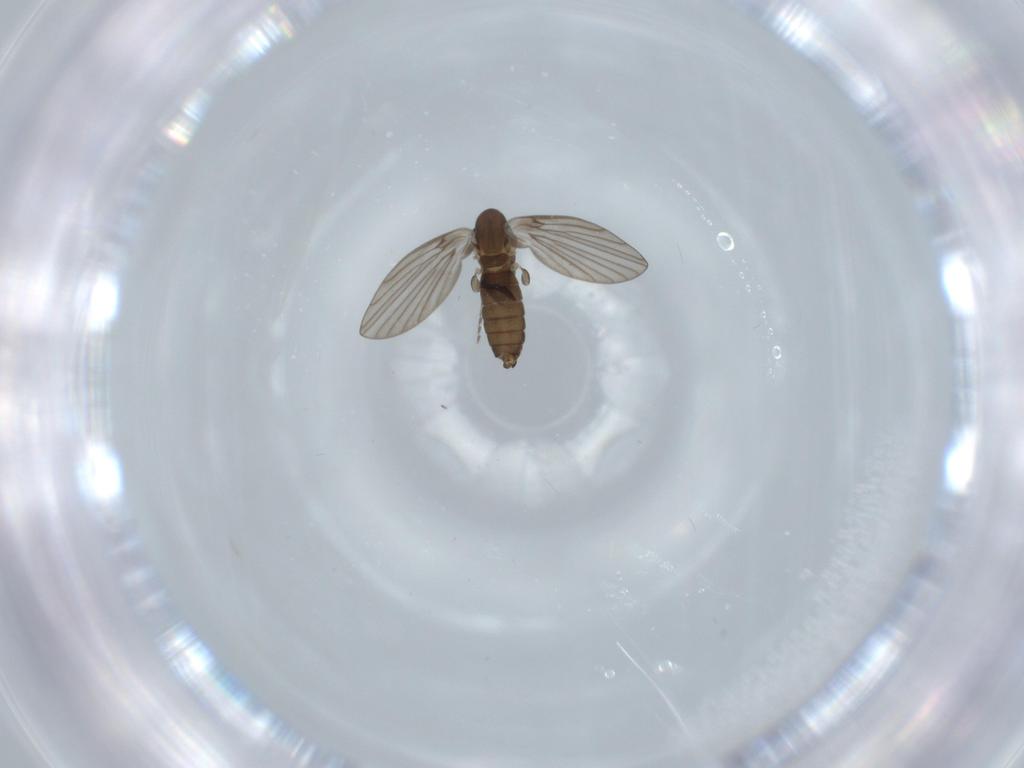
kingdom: Animalia
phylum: Arthropoda
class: Insecta
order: Diptera
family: Psychodidae
